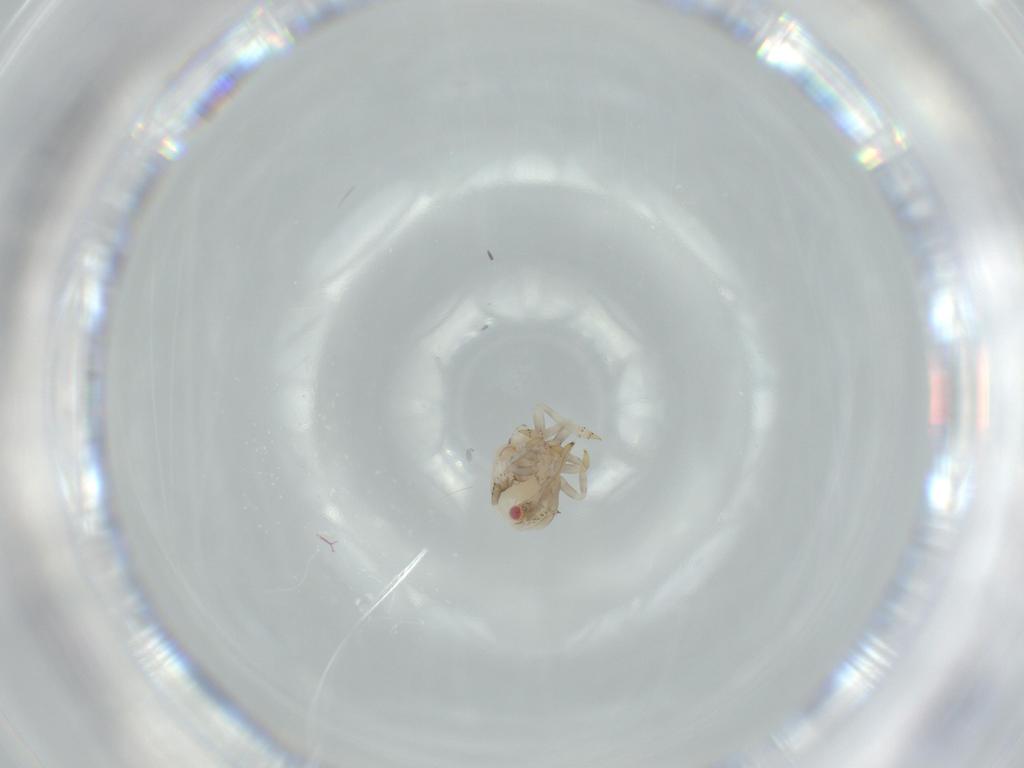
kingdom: Animalia
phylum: Arthropoda
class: Insecta
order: Hemiptera
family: Acanaloniidae
